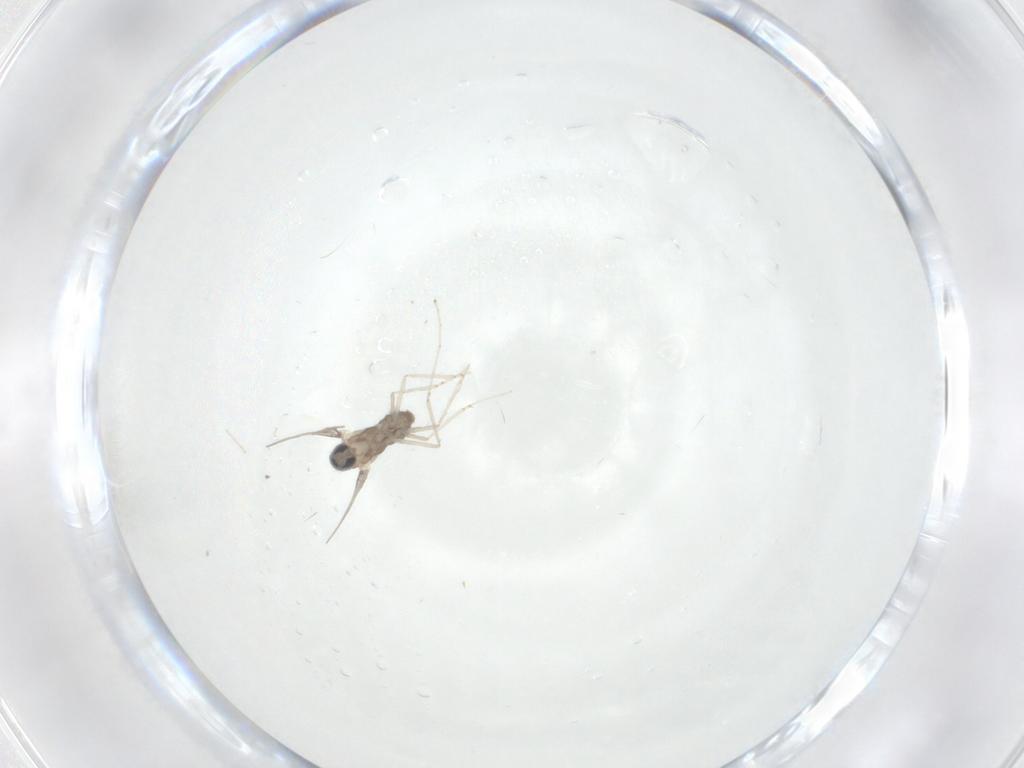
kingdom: Animalia
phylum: Arthropoda
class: Insecta
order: Diptera
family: Cecidomyiidae
